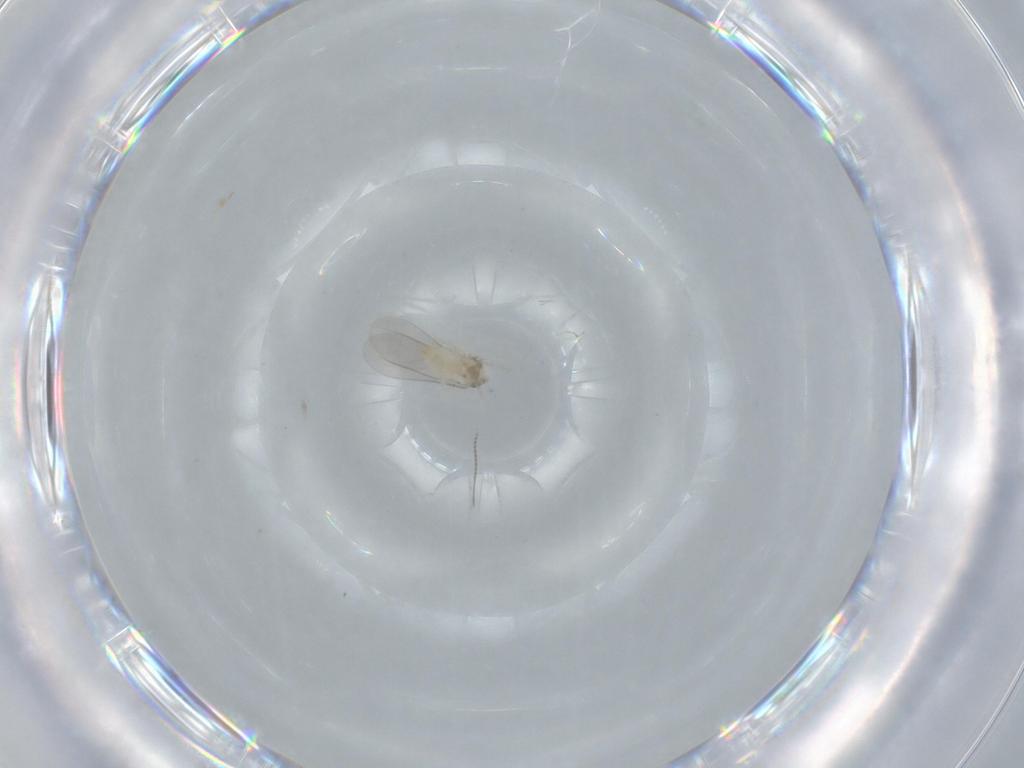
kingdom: Animalia
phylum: Arthropoda
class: Insecta
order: Diptera
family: Cecidomyiidae
